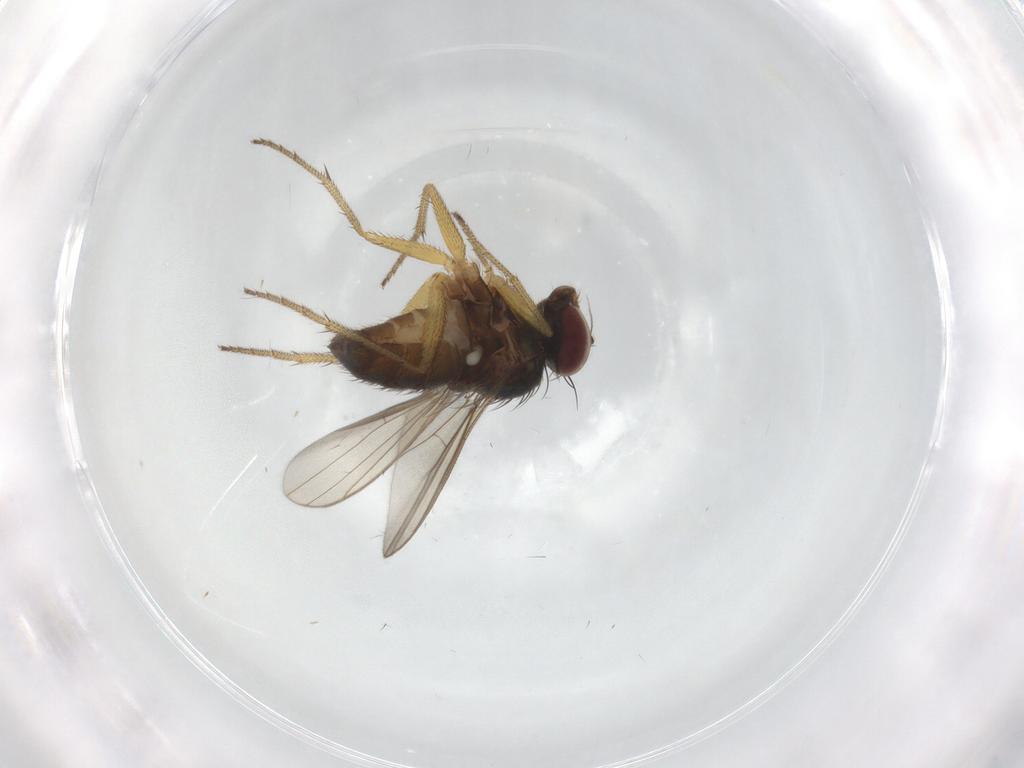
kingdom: Animalia
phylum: Arthropoda
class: Insecta
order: Diptera
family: Dolichopodidae
